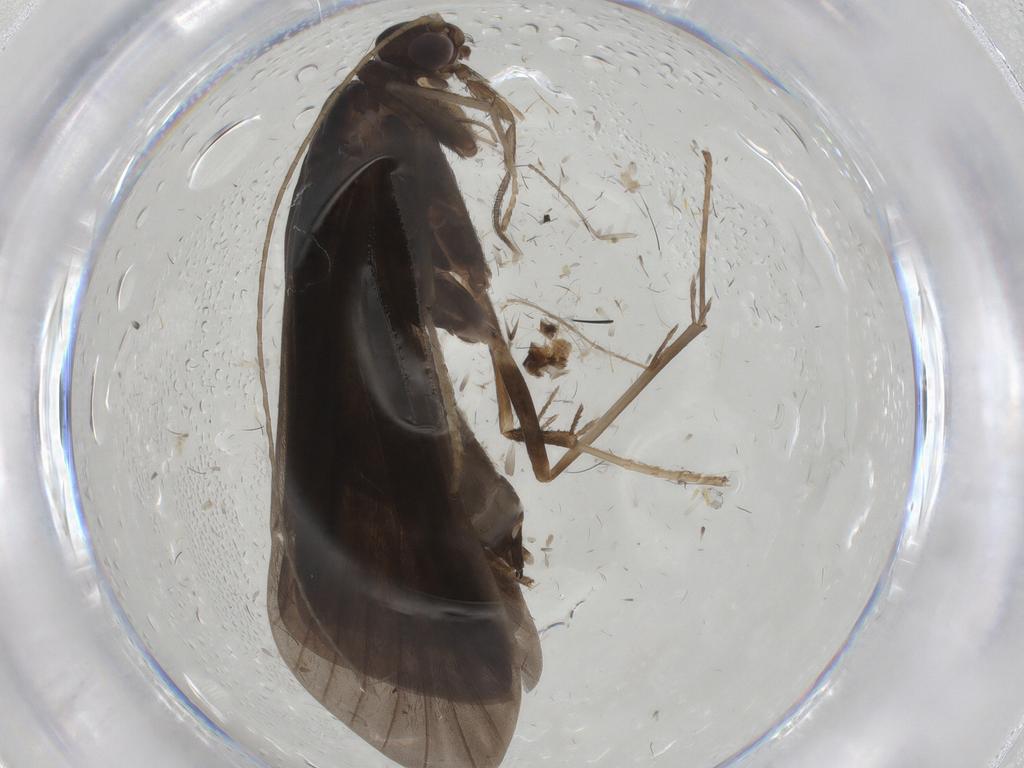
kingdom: Animalia
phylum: Arthropoda
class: Insecta
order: Trichoptera
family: Hydropsychidae
